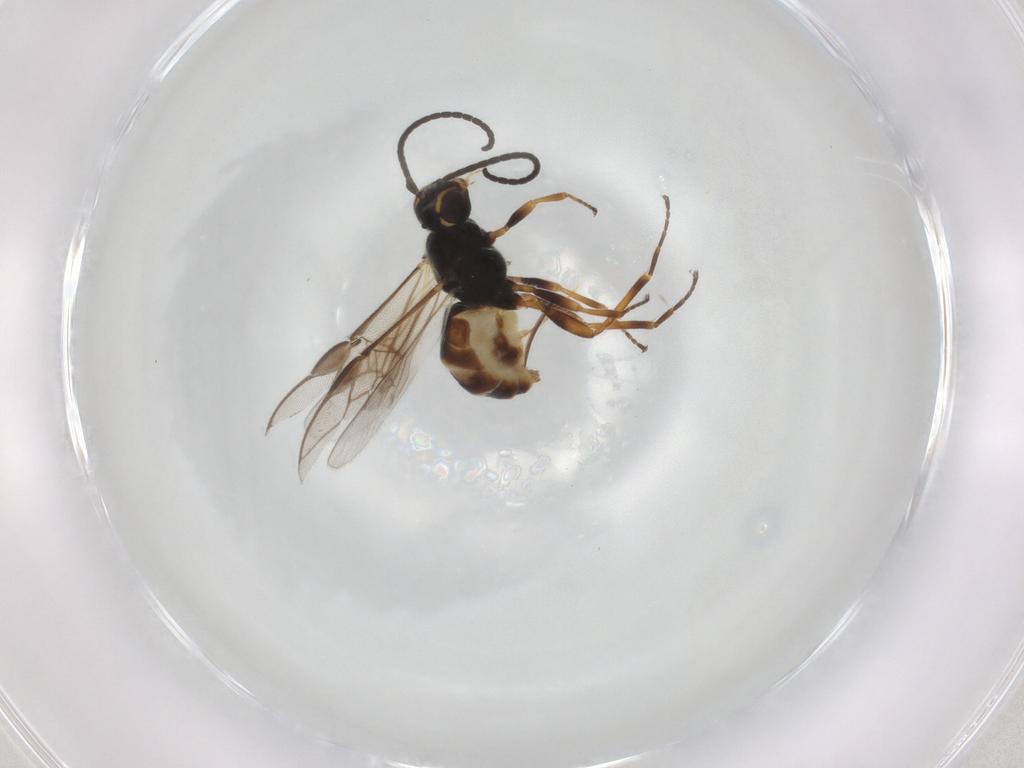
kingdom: Animalia
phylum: Arthropoda
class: Insecta
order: Hymenoptera
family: Braconidae
